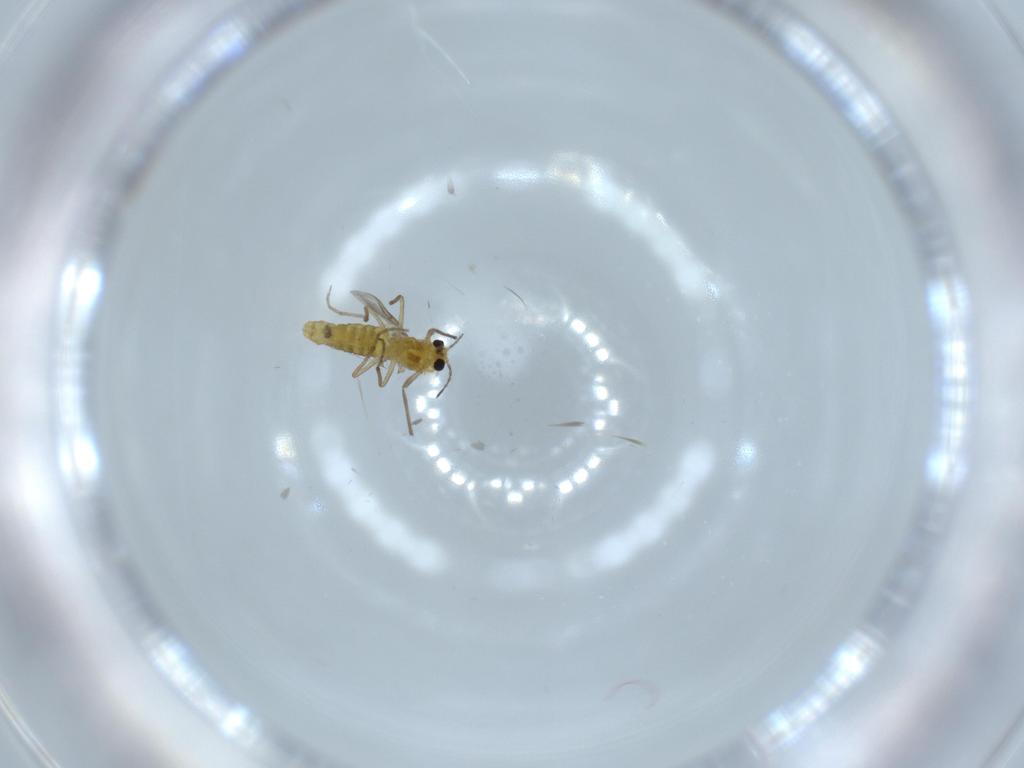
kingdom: Animalia
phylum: Arthropoda
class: Insecta
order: Diptera
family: Chironomidae
